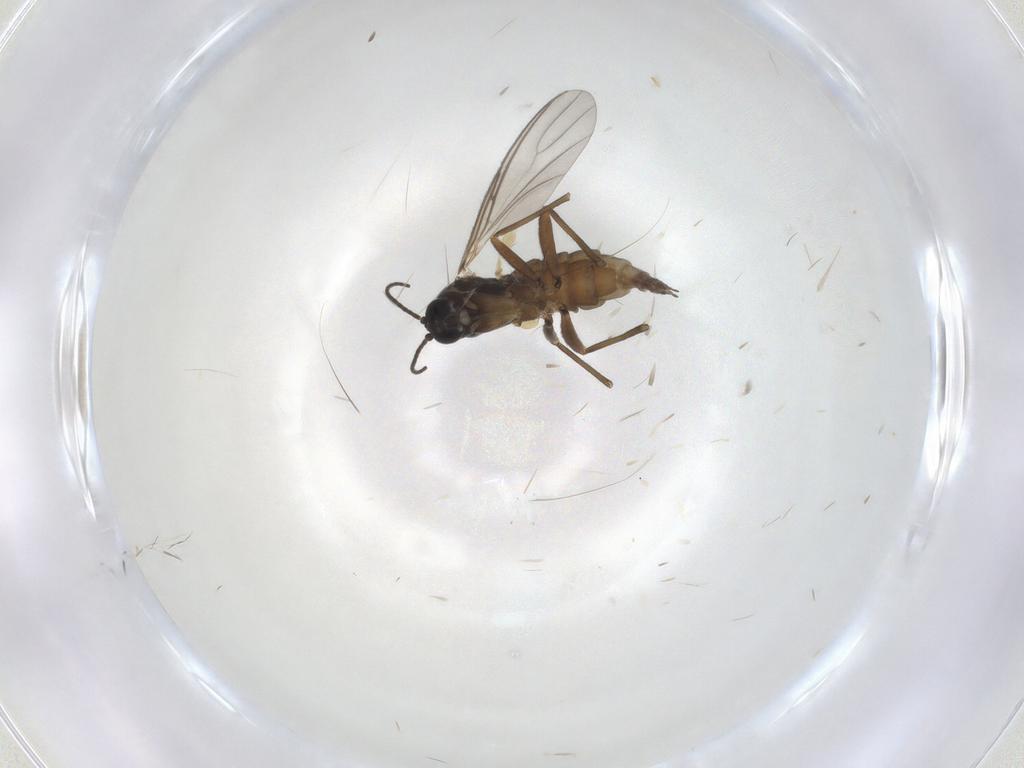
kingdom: Animalia
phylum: Arthropoda
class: Insecta
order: Diptera
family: Sciaridae
